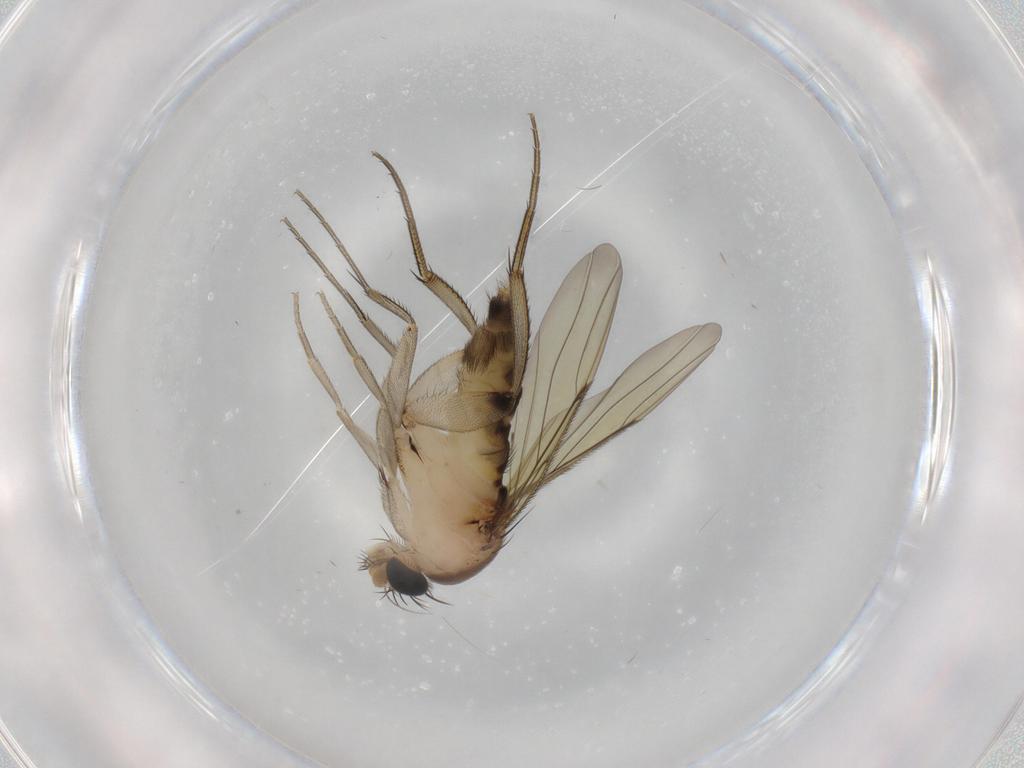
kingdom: Animalia
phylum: Arthropoda
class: Insecta
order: Diptera
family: Phoridae
